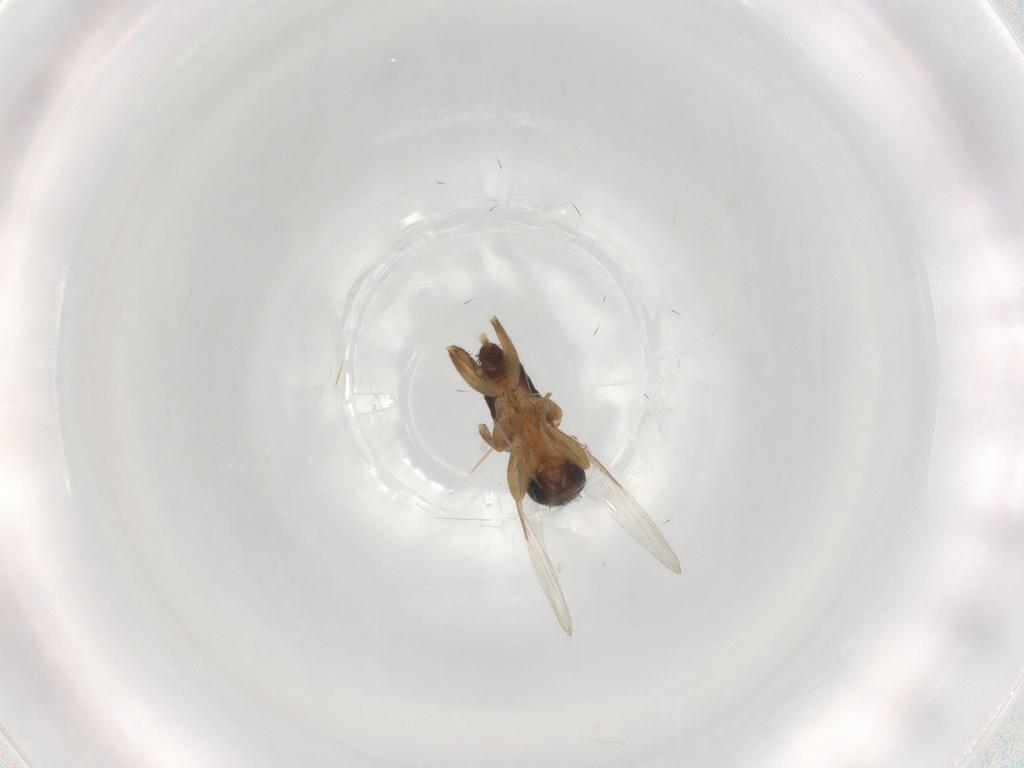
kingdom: Animalia
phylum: Arthropoda
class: Insecta
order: Diptera
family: Phoridae
